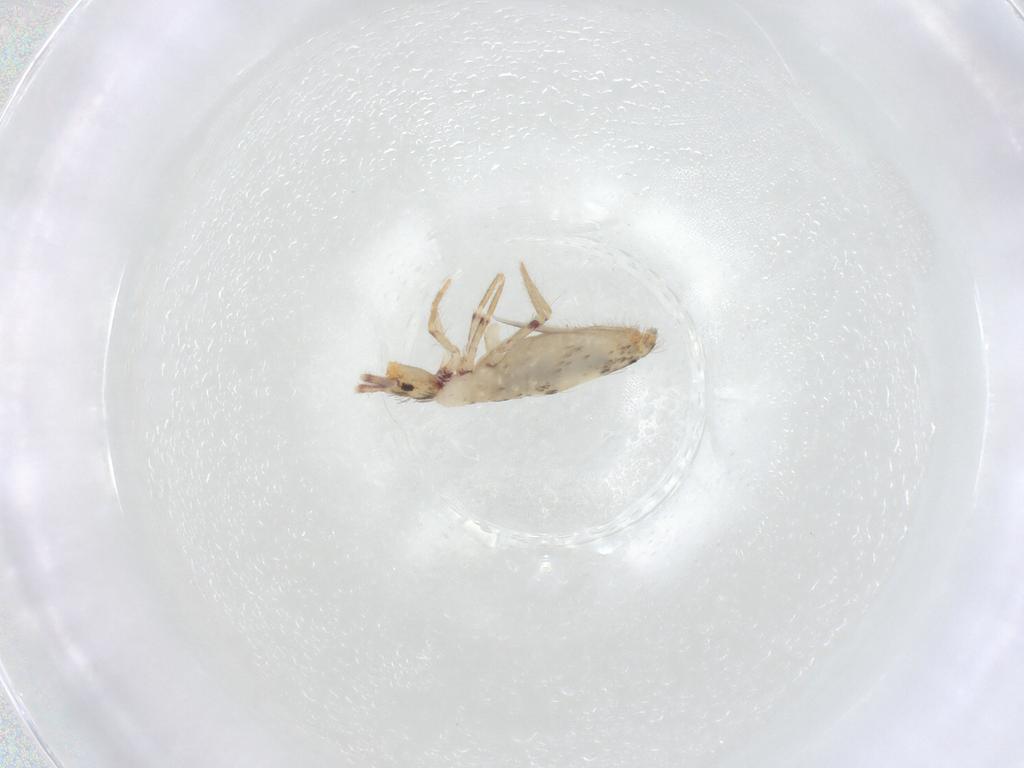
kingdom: Animalia
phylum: Arthropoda
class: Collembola
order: Entomobryomorpha
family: Entomobryidae
